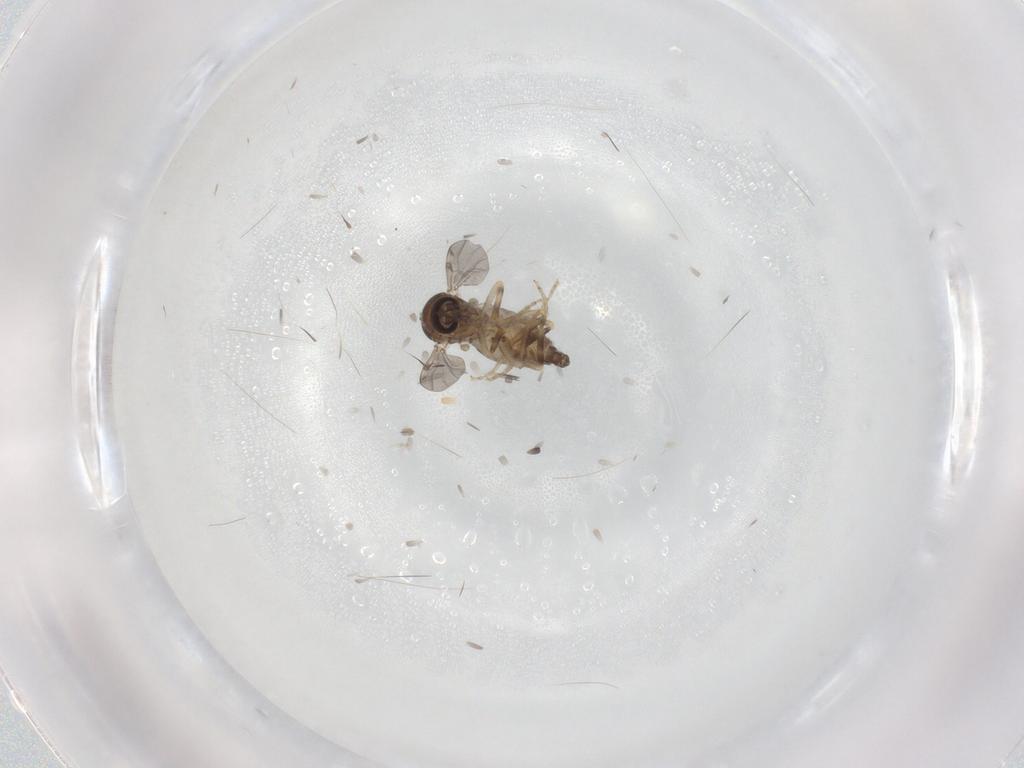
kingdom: Animalia
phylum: Arthropoda
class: Insecta
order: Diptera
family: Ceratopogonidae
